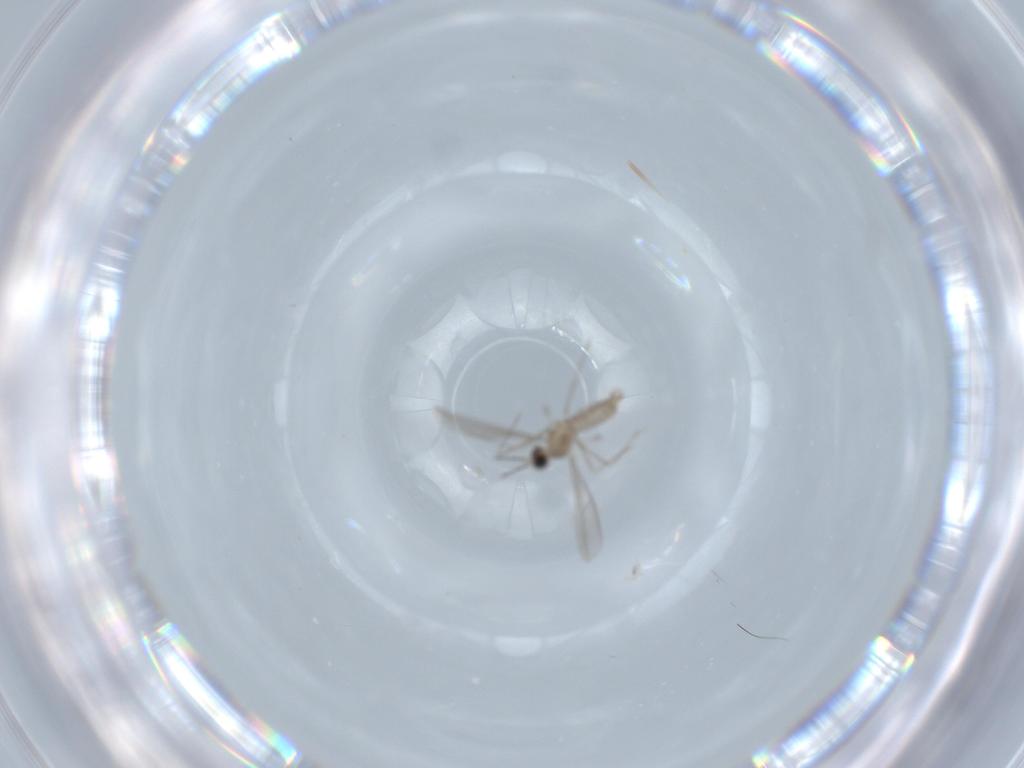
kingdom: Animalia
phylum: Arthropoda
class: Insecta
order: Diptera
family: Cecidomyiidae
